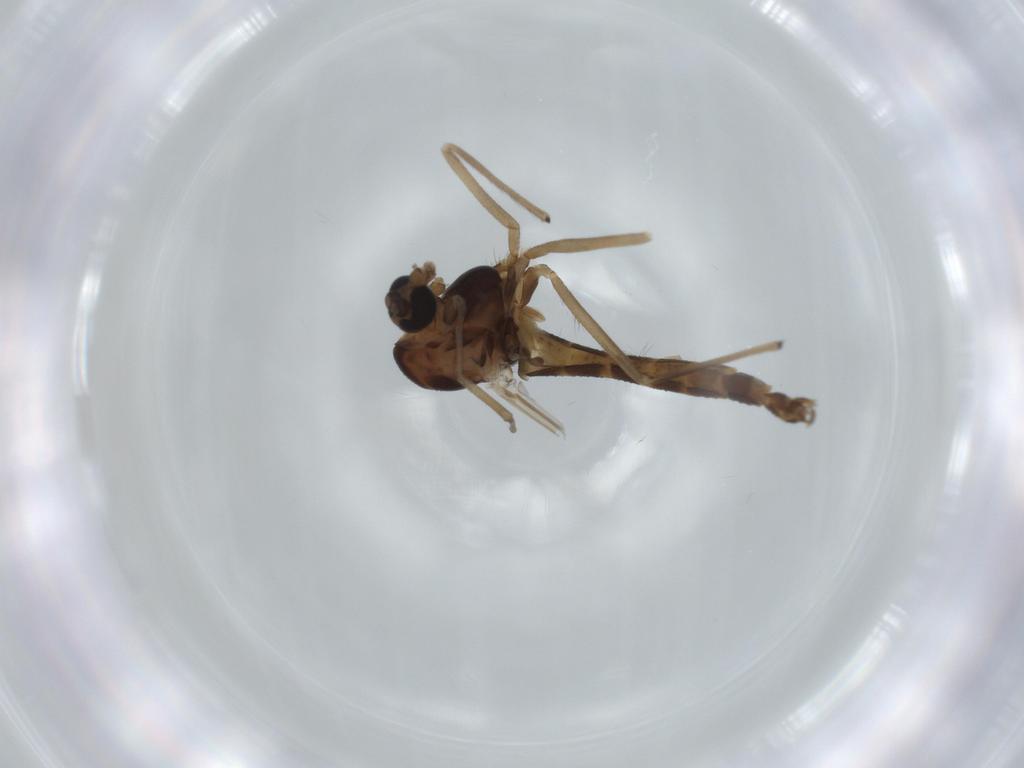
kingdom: Animalia
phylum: Arthropoda
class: Insecta
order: Diptera
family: Chironomidae
